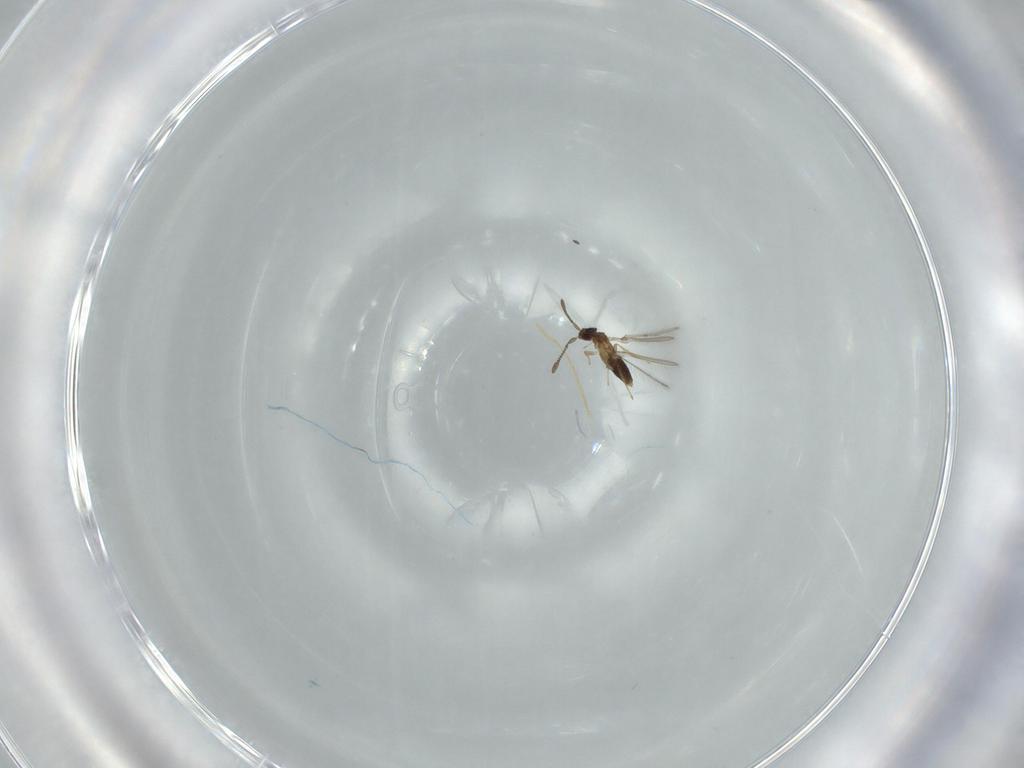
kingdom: Animalia
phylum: Arthropoda
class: Insecta
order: Hymenoptera
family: Mymaridae
